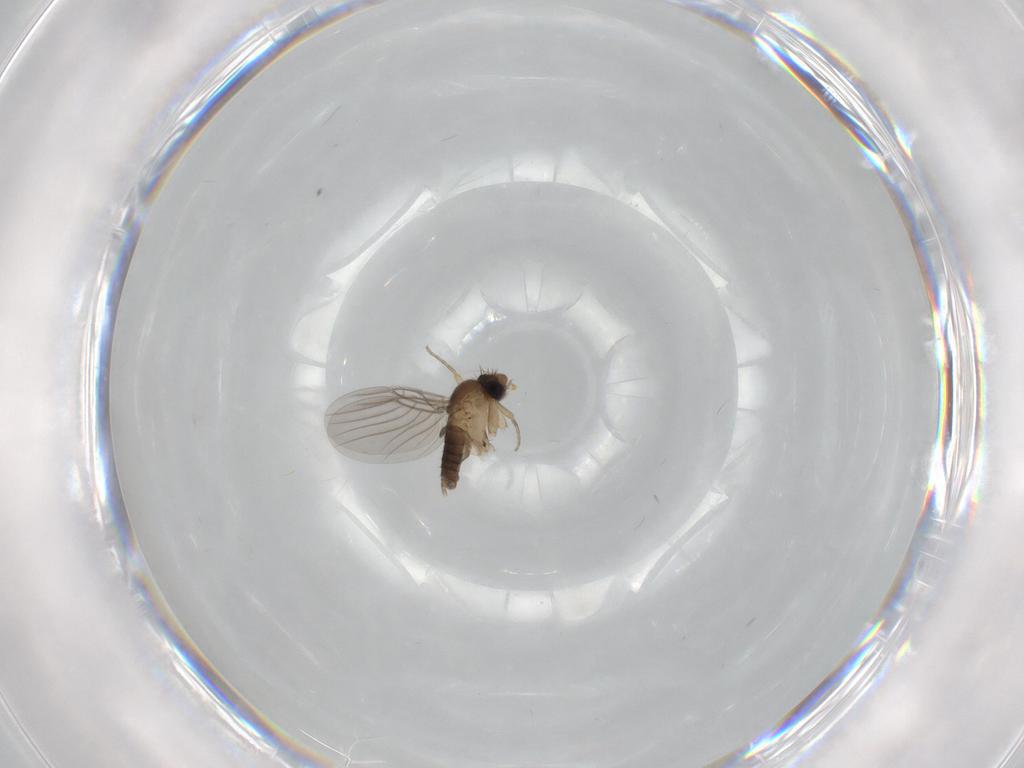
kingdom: Animalia
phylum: Arthropoda
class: Insecta
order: Diptera
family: Phoridae
